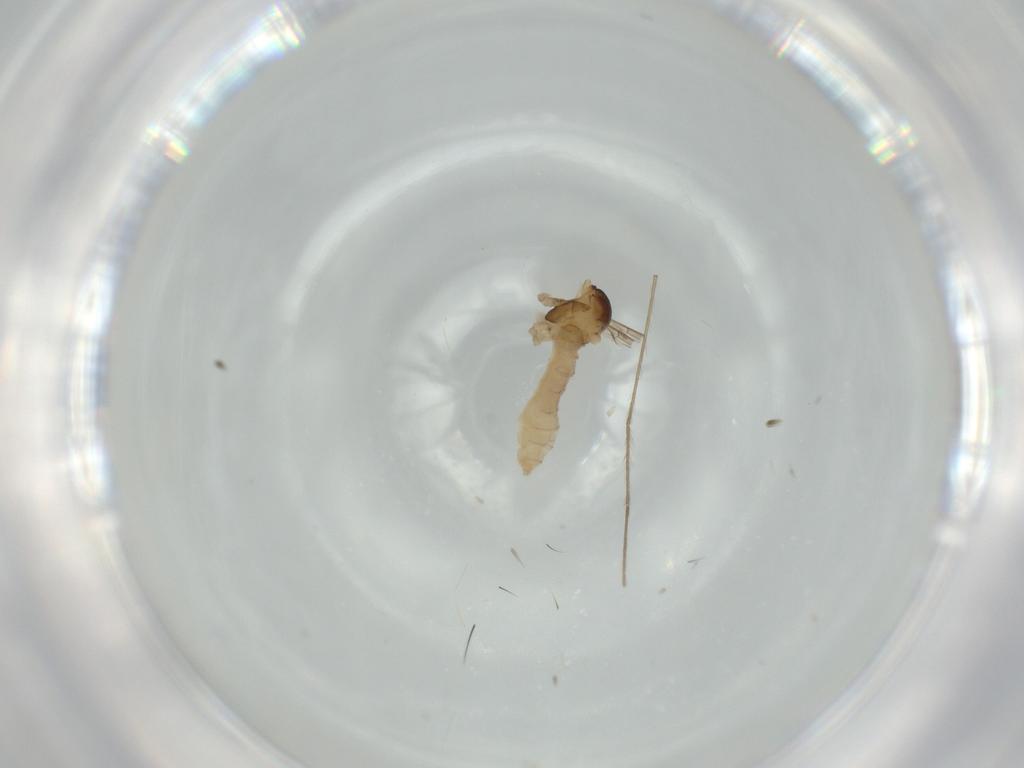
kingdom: Animalia
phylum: Arthropoda
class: Insecta
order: Diptera
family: Cecidomyiidae
